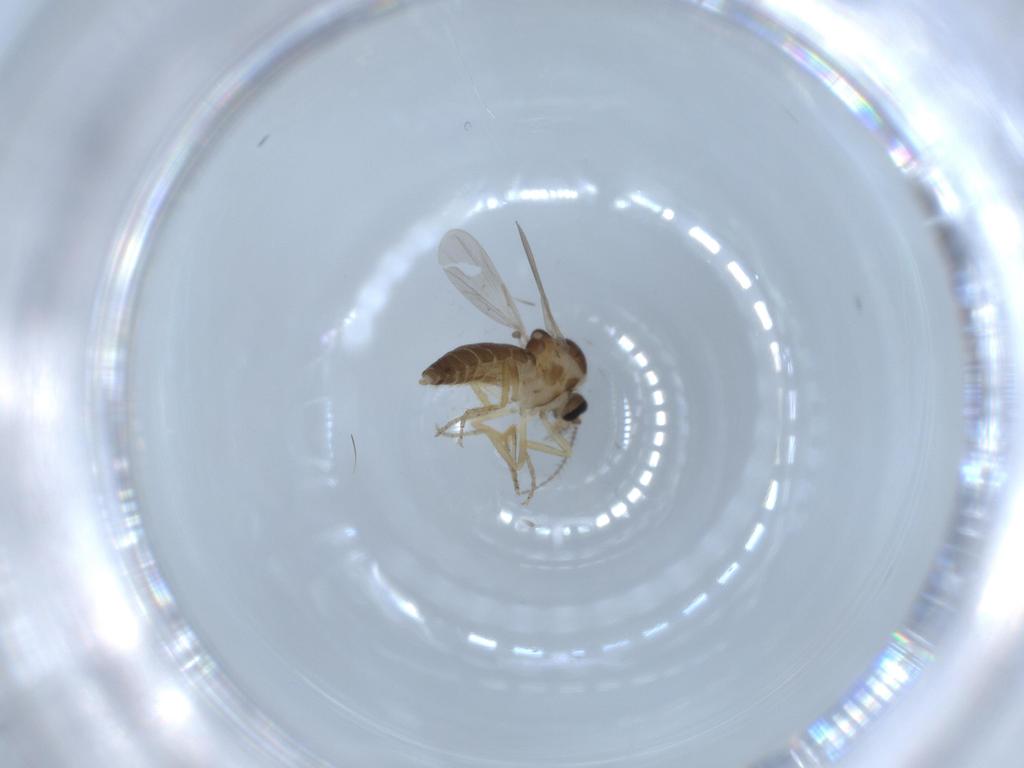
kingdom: Animalia
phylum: Arthropoda
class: Insecta
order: Diptera
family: Ceratopogonidae
